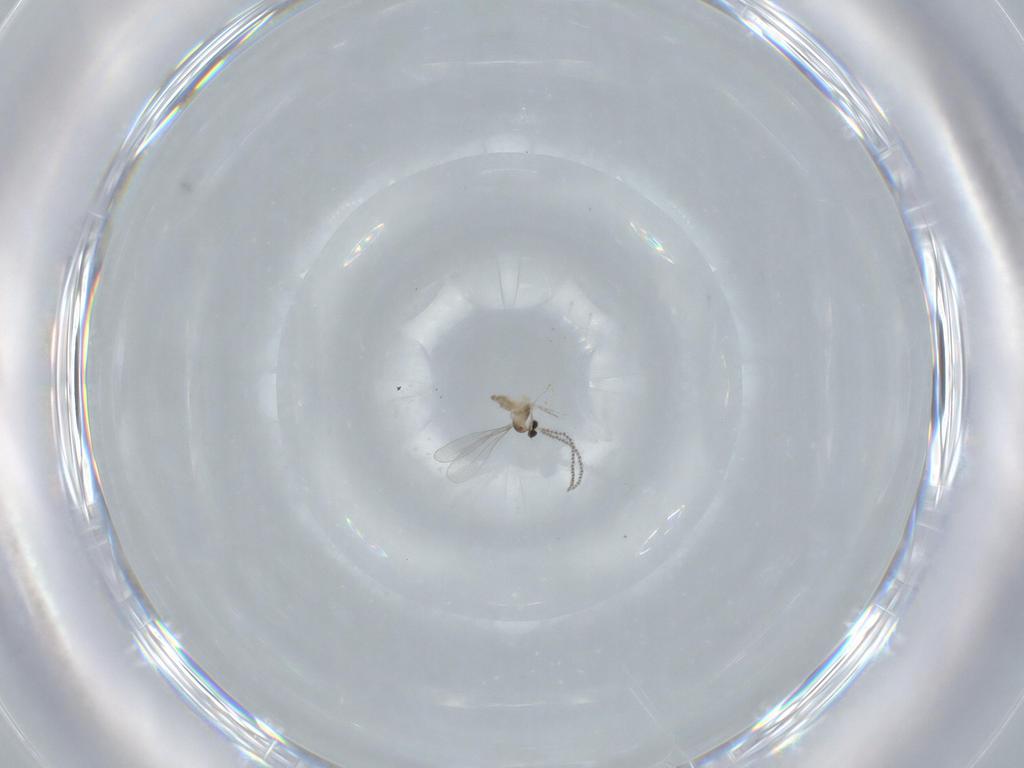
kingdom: Animalia
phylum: Arthropoda
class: Insecta
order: Diptera
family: Cecidomyiidae
